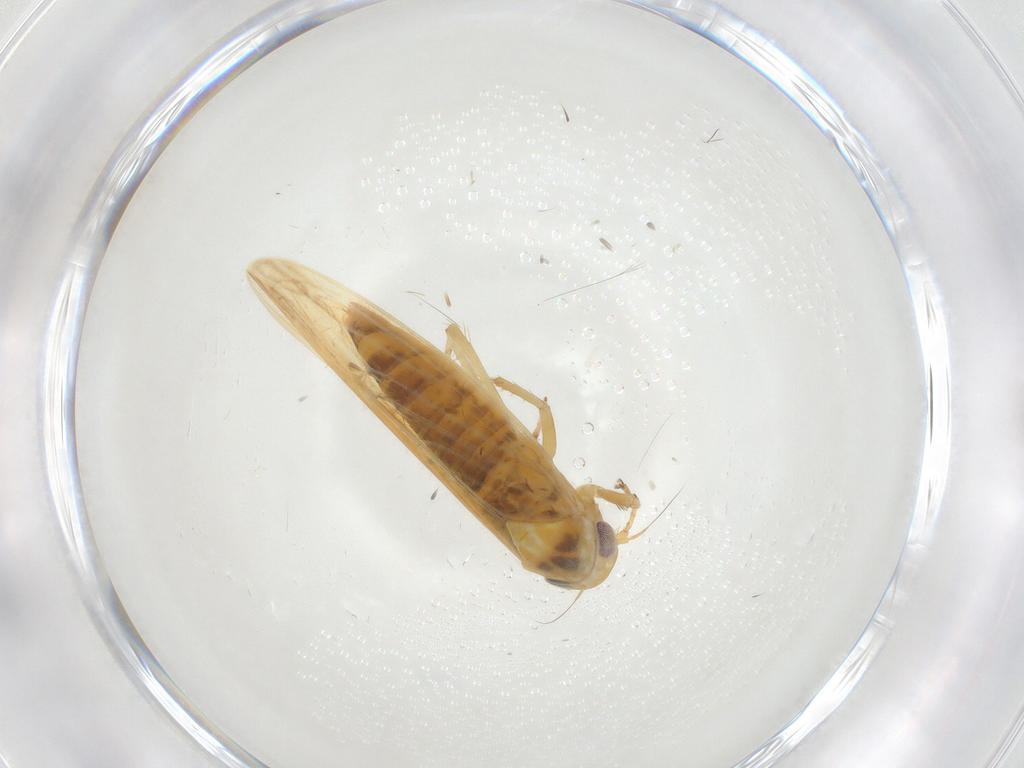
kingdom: Animalia
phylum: Arthropoda
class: Insecta
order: Hemiptera
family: Cicadellidae
